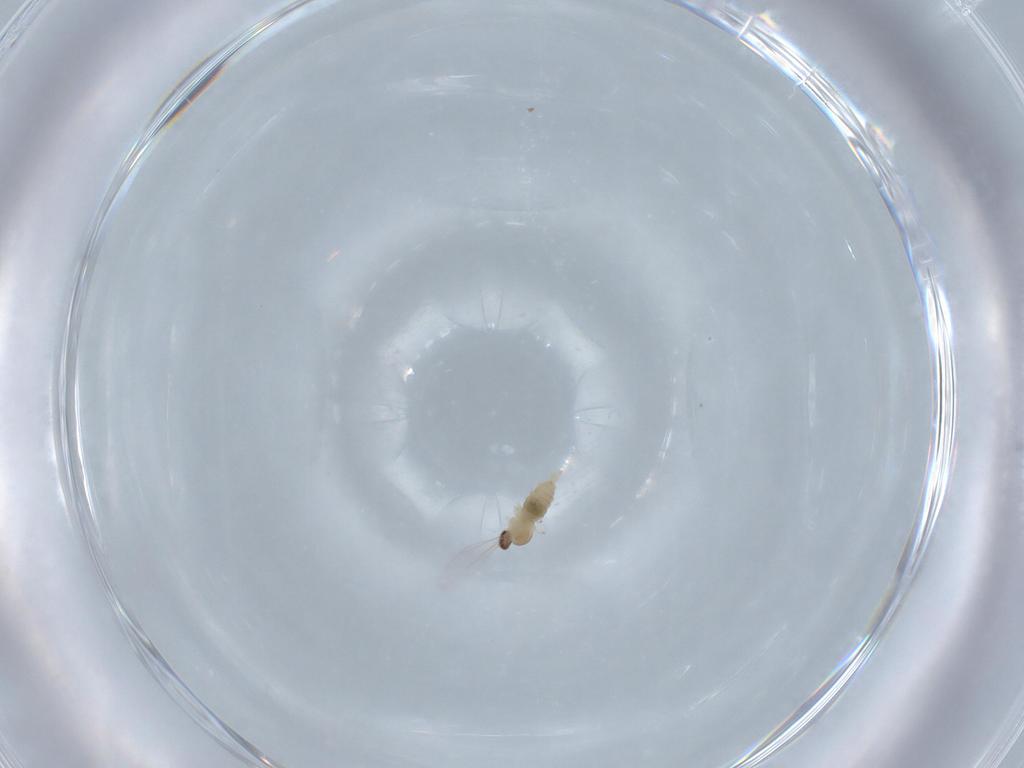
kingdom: Animalia
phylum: Arthropoda
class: Insecta
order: Diptera
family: Cecidomyiidae
